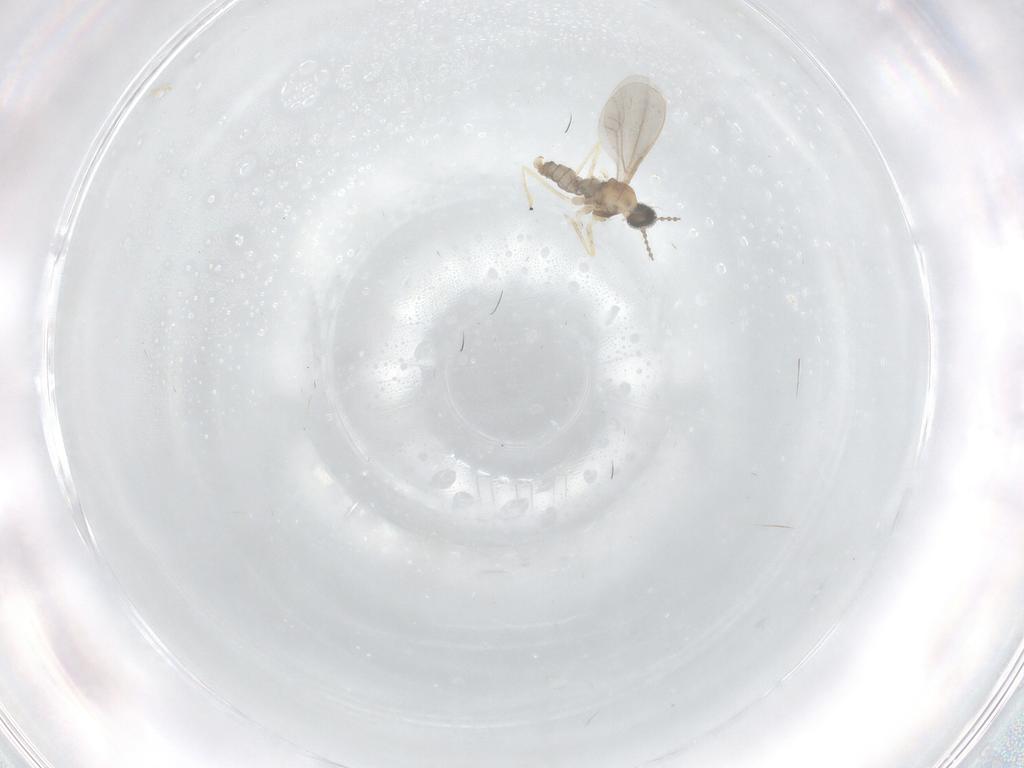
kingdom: Animalia
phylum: Arthropoda
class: Insecta
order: Diptera
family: Cecidomyiidae
